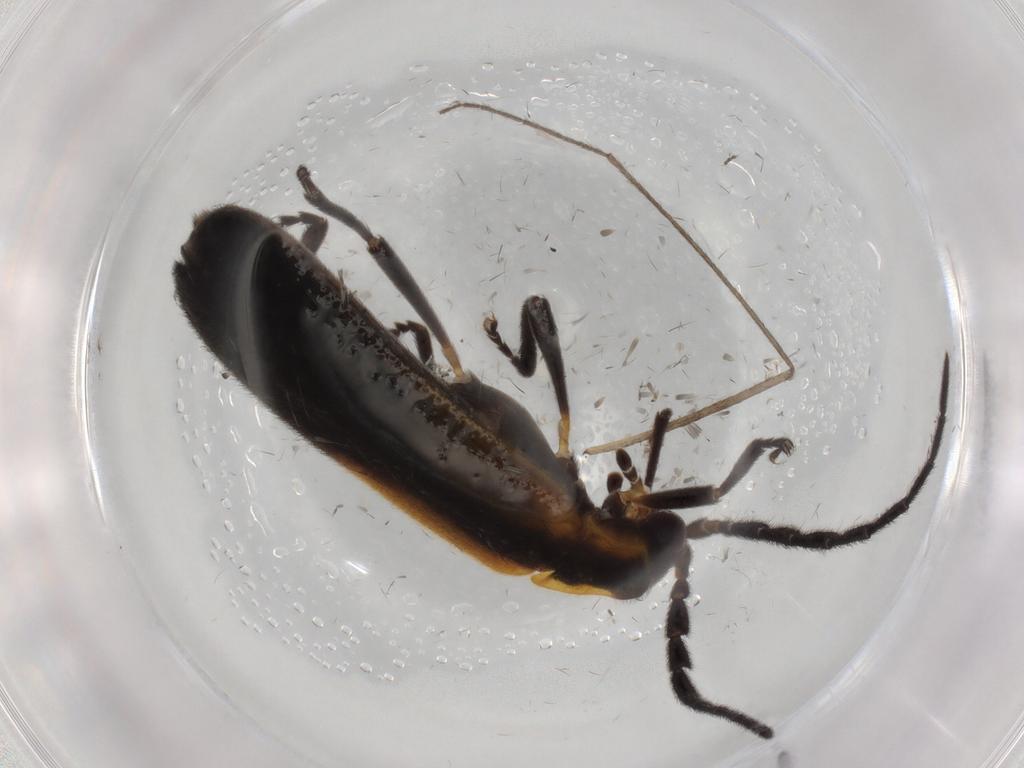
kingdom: Animalia
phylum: Arthropoda
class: Insecta
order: Coleoptera
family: Lycidae
